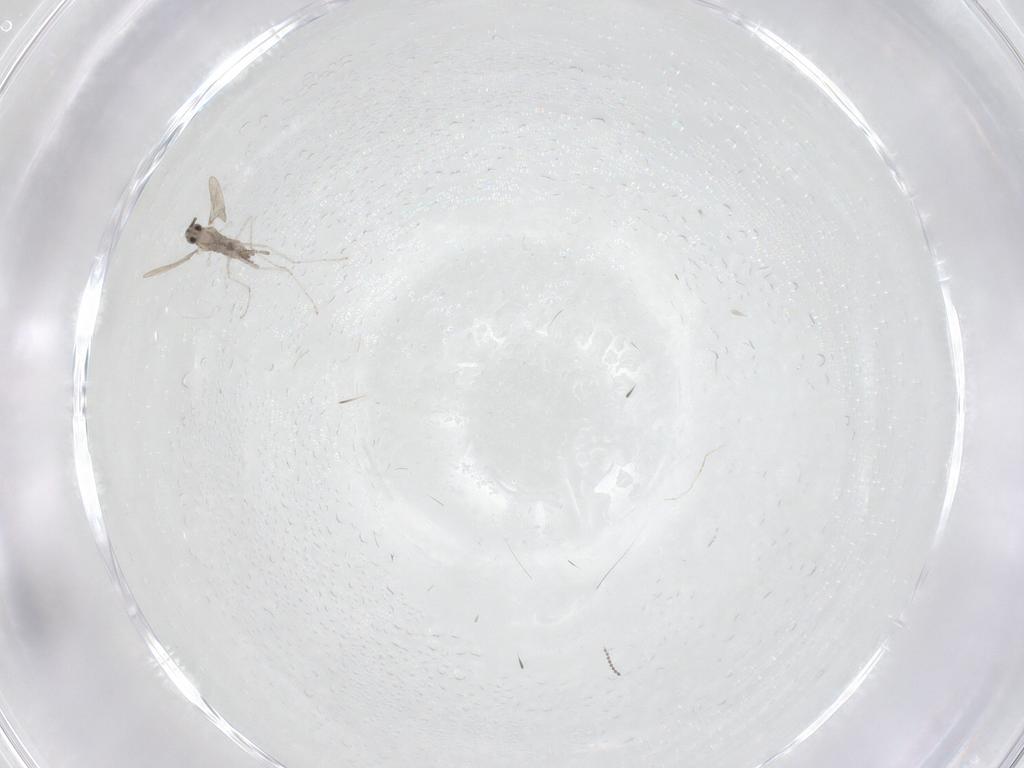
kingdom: Animalia
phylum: Arthropoda
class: Insecta
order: Diptera
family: Cecidomyiidae
